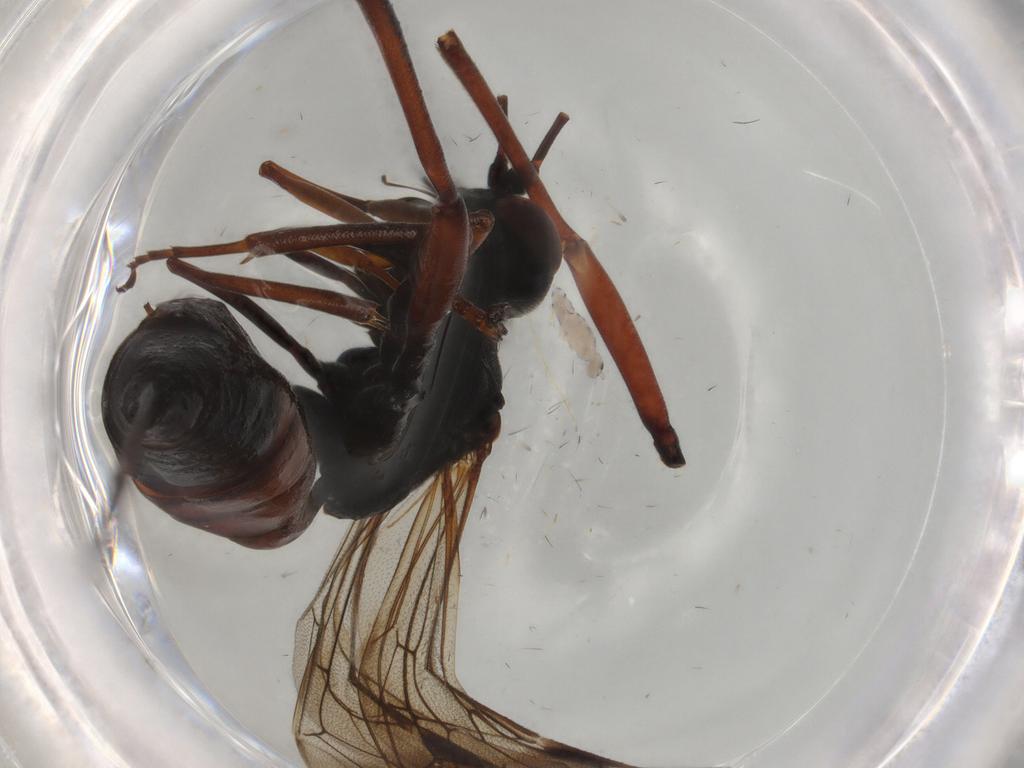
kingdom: Animalia
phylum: Arthropoda
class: Insecta
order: Hymenoptera
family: Ichneumonidae
